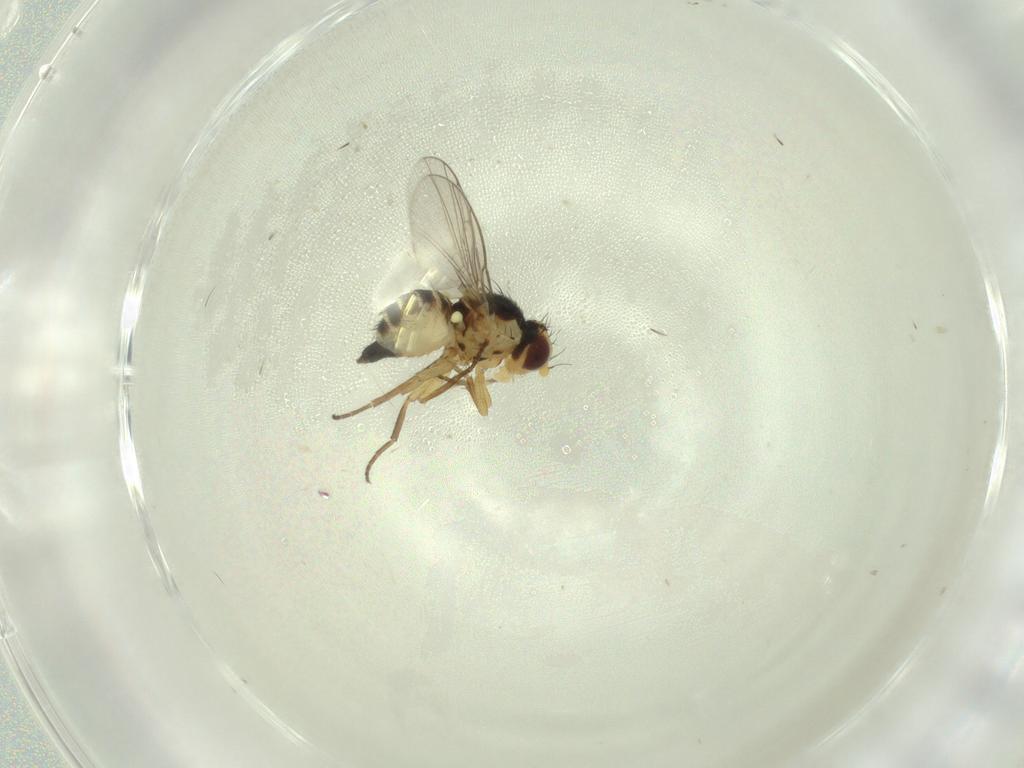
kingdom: Animalia
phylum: Arthropoda
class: Insecta
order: Diptera
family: Agromyzidae
